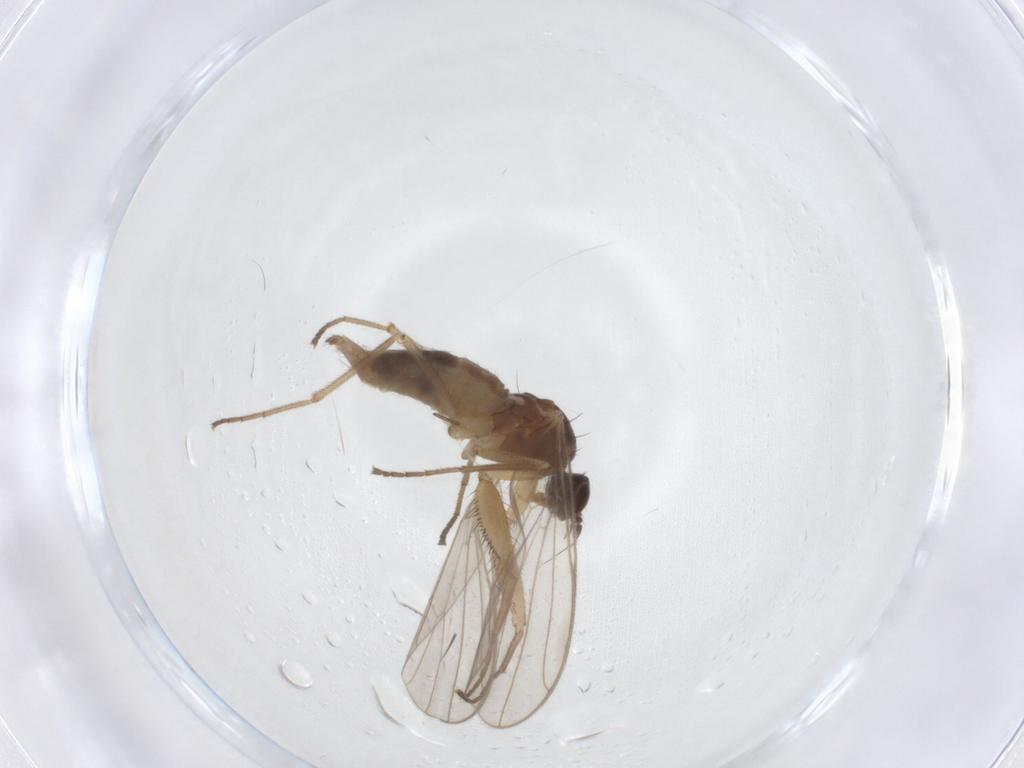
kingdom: Animalia
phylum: Arthropoda
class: Insecta
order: Diptera
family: Empididae
